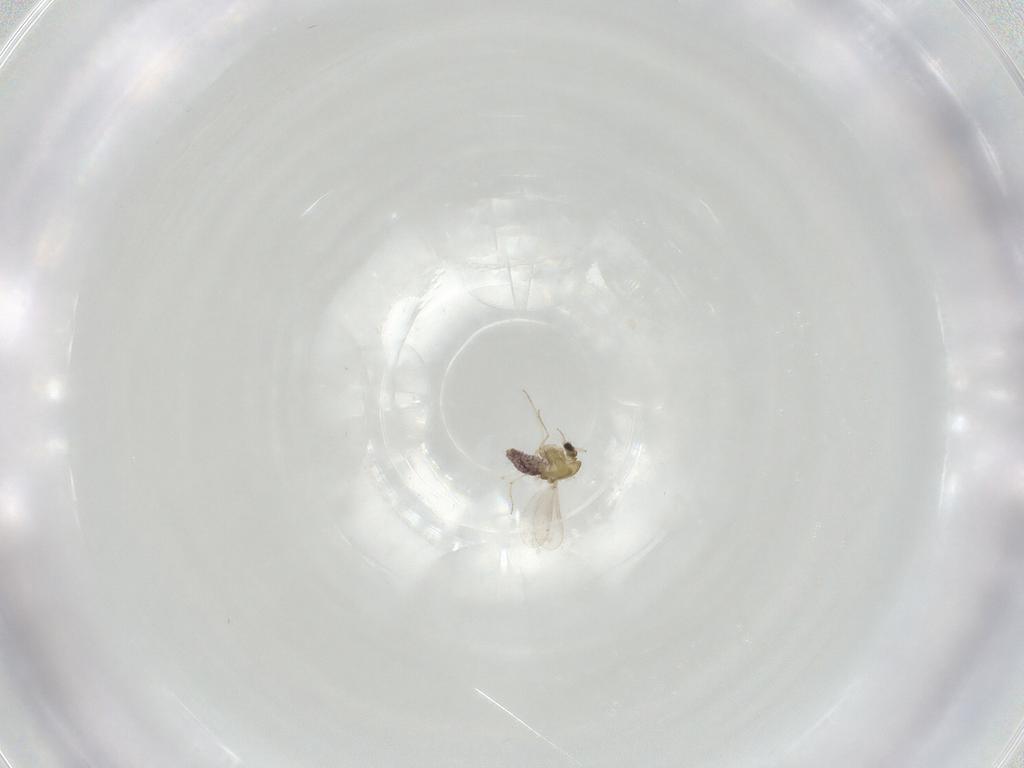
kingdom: Animalia
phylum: Arthropoda
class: Insecta
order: Diptera
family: Chironomidae
